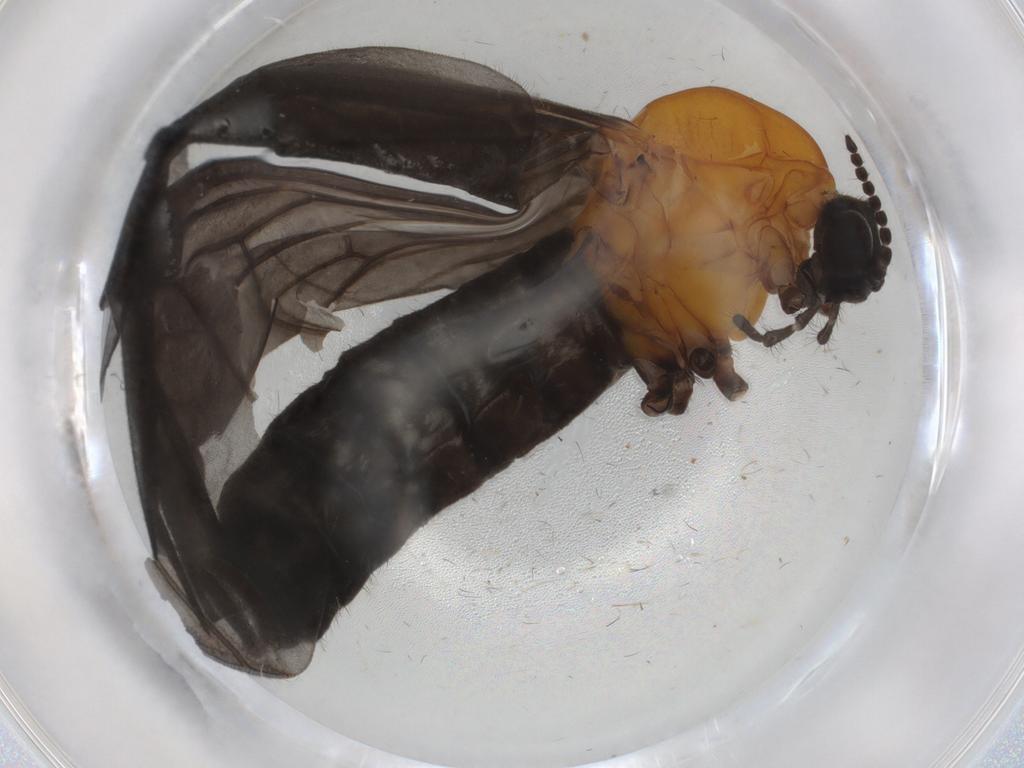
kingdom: Animalia
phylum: Arthropoda
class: Insecta
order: Diptera
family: Bibionidae
